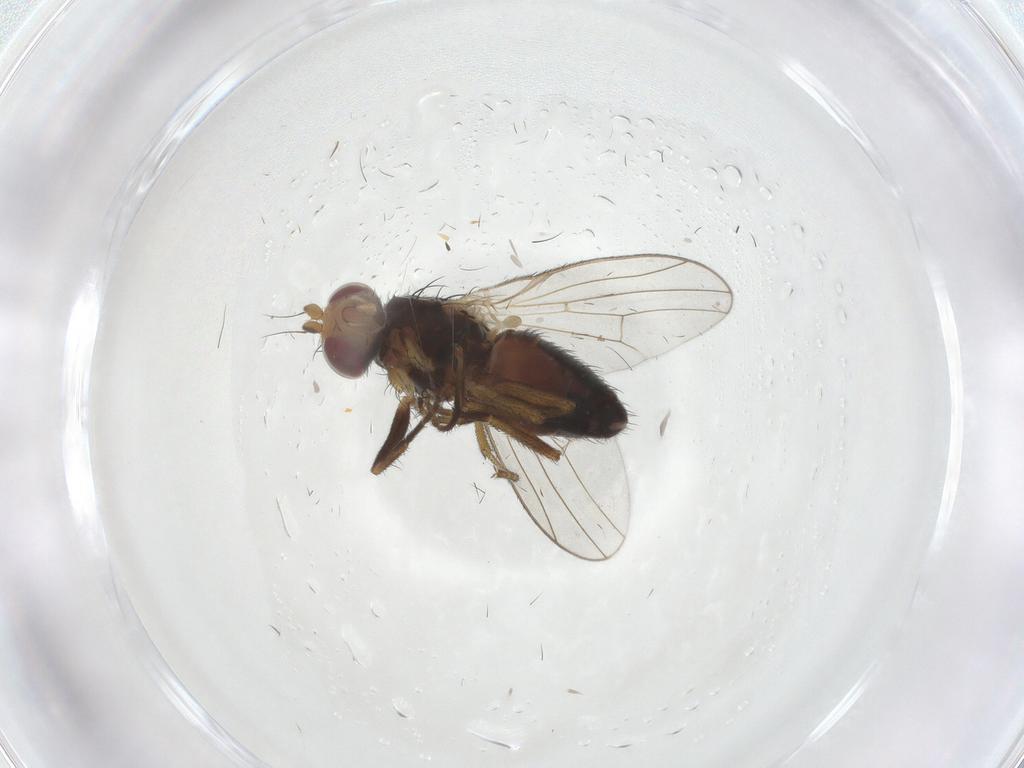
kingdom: Animalia
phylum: Arthropoda
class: Insecta
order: Diptera
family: Heleomyzidae
